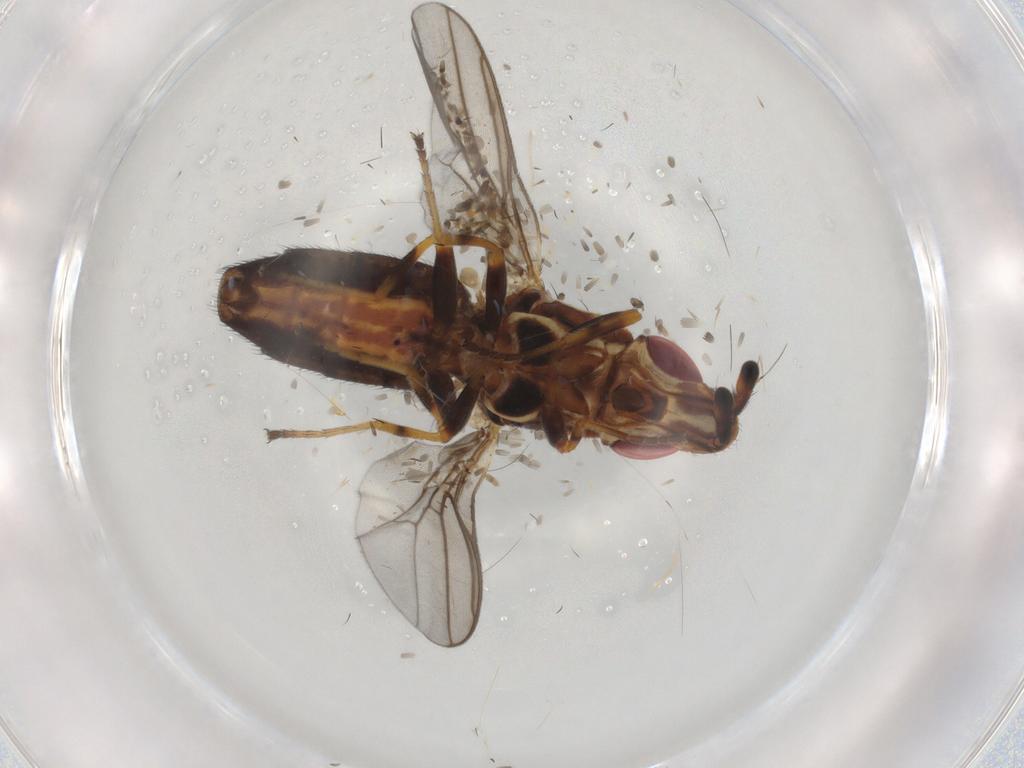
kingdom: Animalia
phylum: Arthropoda
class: Insecta
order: Diptera
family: Chloropidae
